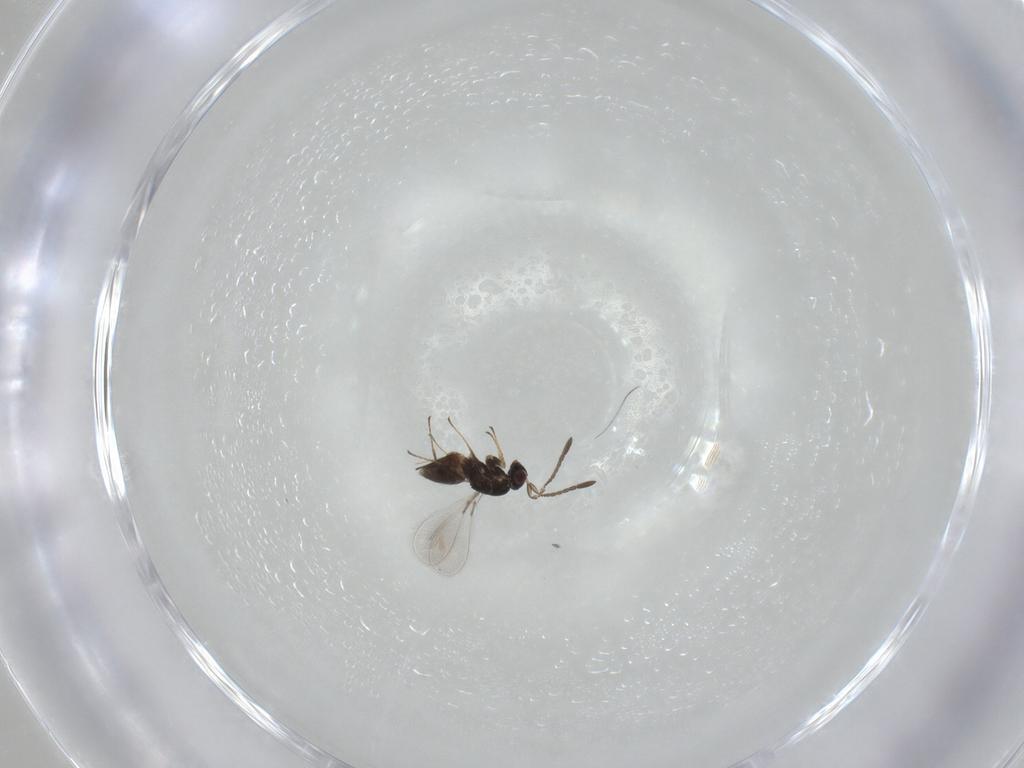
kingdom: Animalia
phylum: Arthropoda
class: Insecta
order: Hymenoptera
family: Mymaridae
